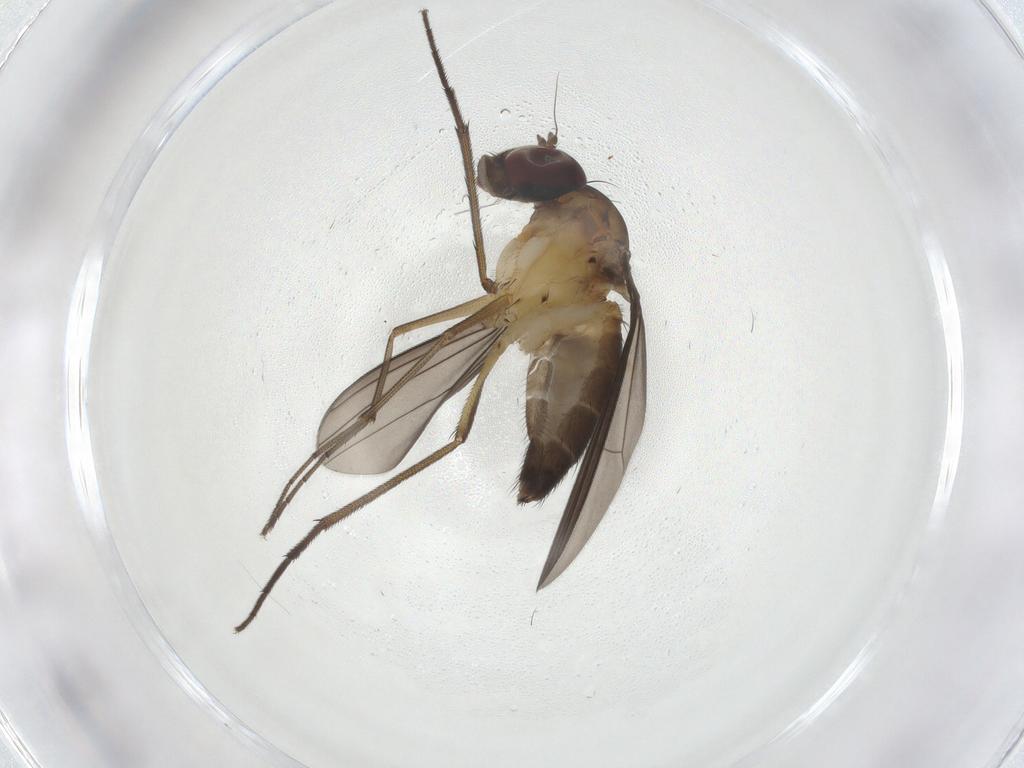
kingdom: Animalia
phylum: Arthropoda
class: Insecta
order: Diptera
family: Dolichopodidae
